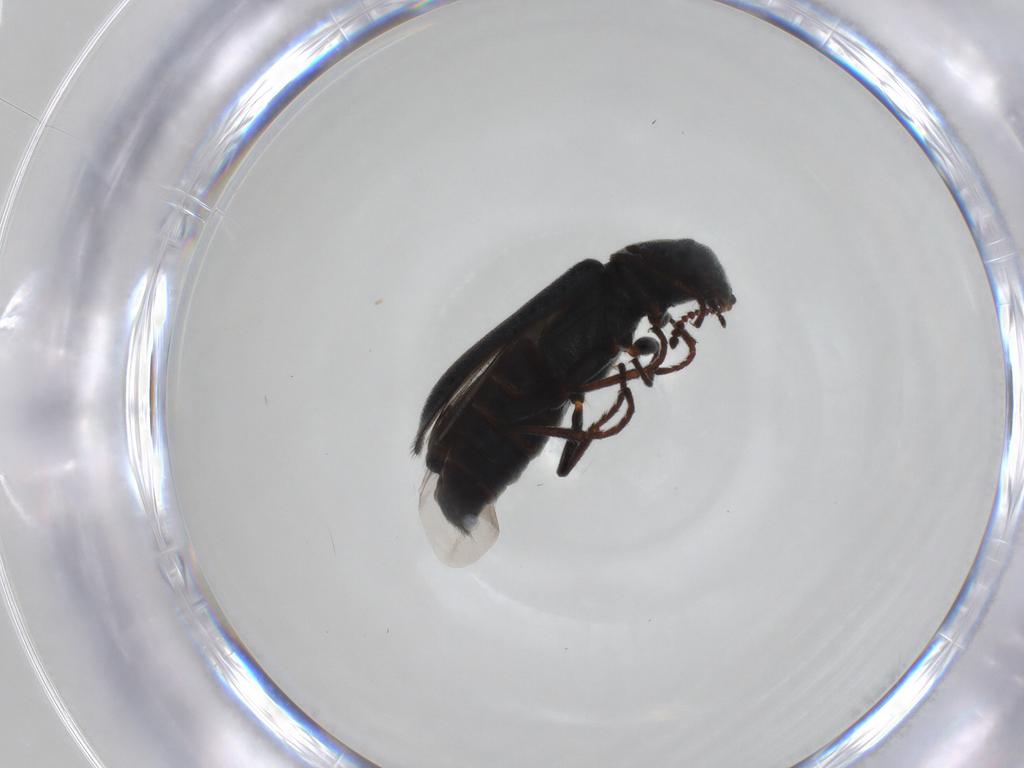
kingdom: Animalia
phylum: Arthropoda
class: Insecta
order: Coleoptera
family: Melyridae
